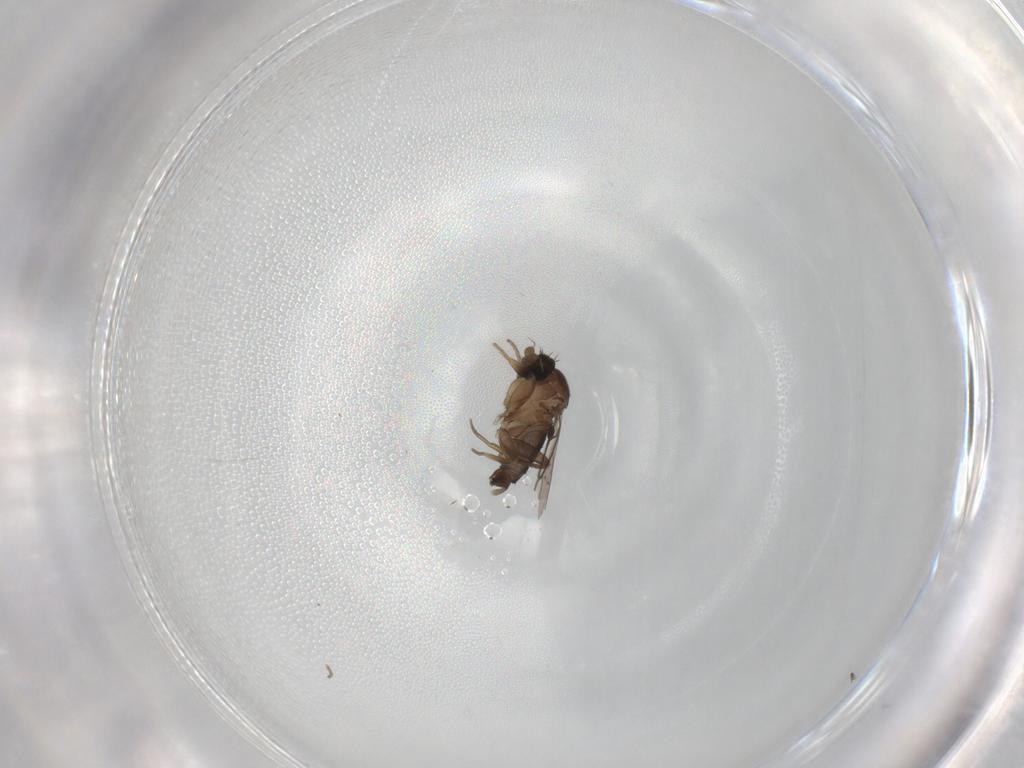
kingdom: Animalia
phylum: Arthropoda
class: Insecta
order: Diptera
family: Phoridae
